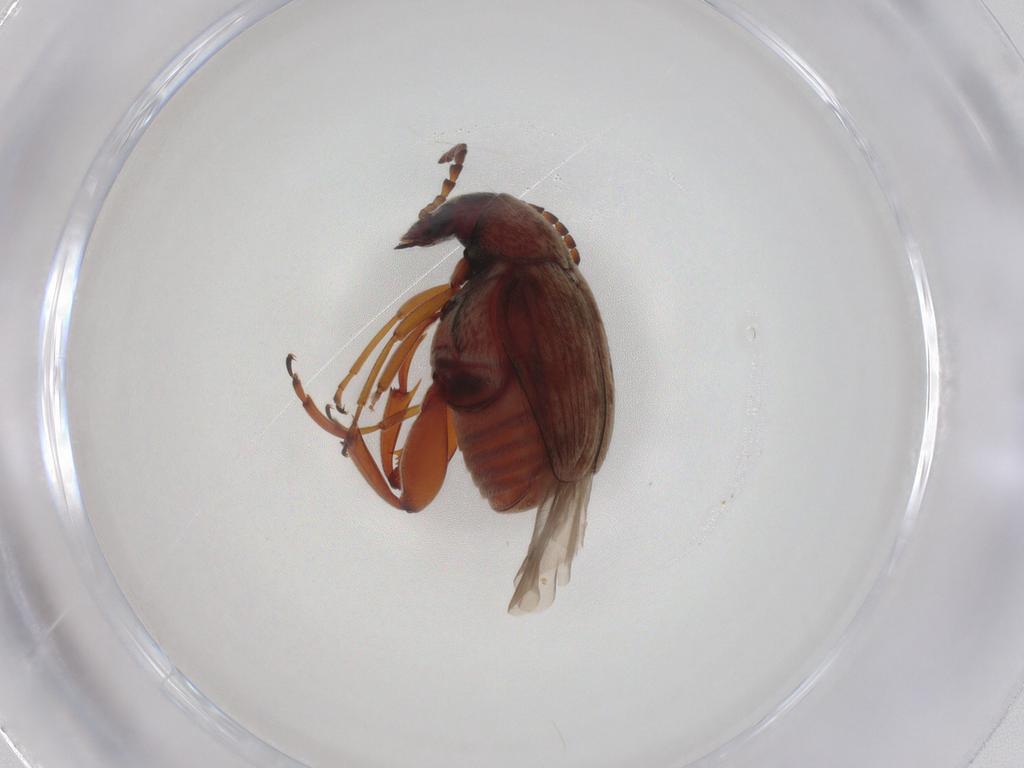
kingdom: Animalia
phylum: Arthropoda
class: Insecta
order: Coleoptera
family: Chrysomelidae
